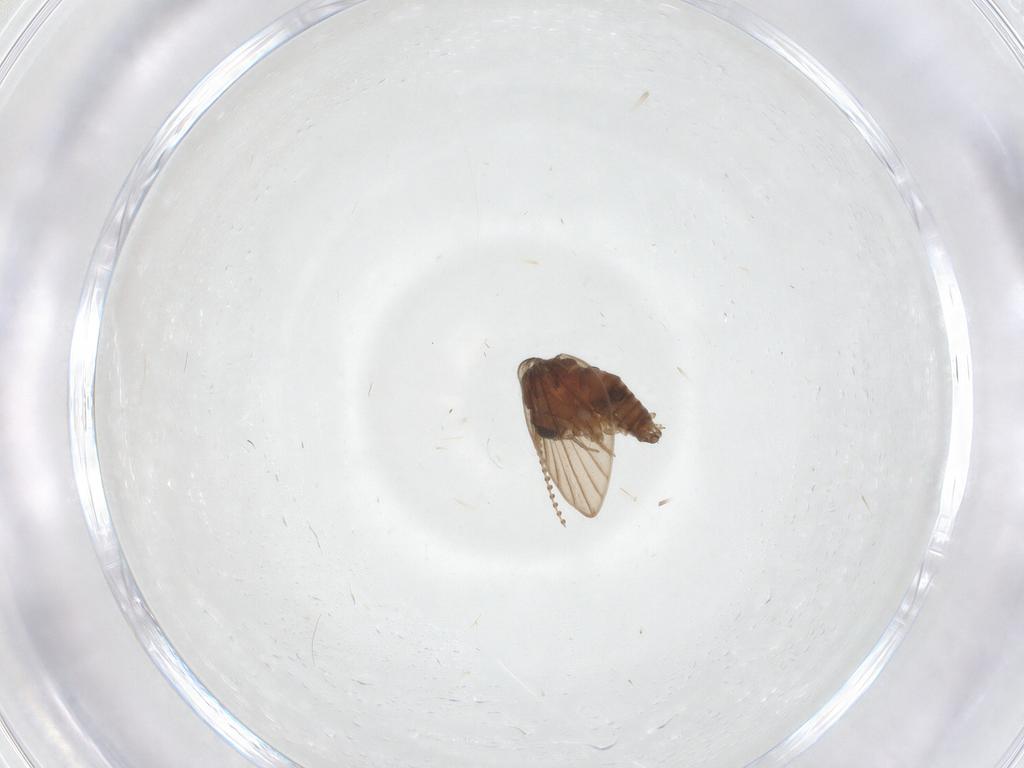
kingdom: Animalia
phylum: Arthropoda
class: Insecta
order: Diptera
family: Psychodidae
